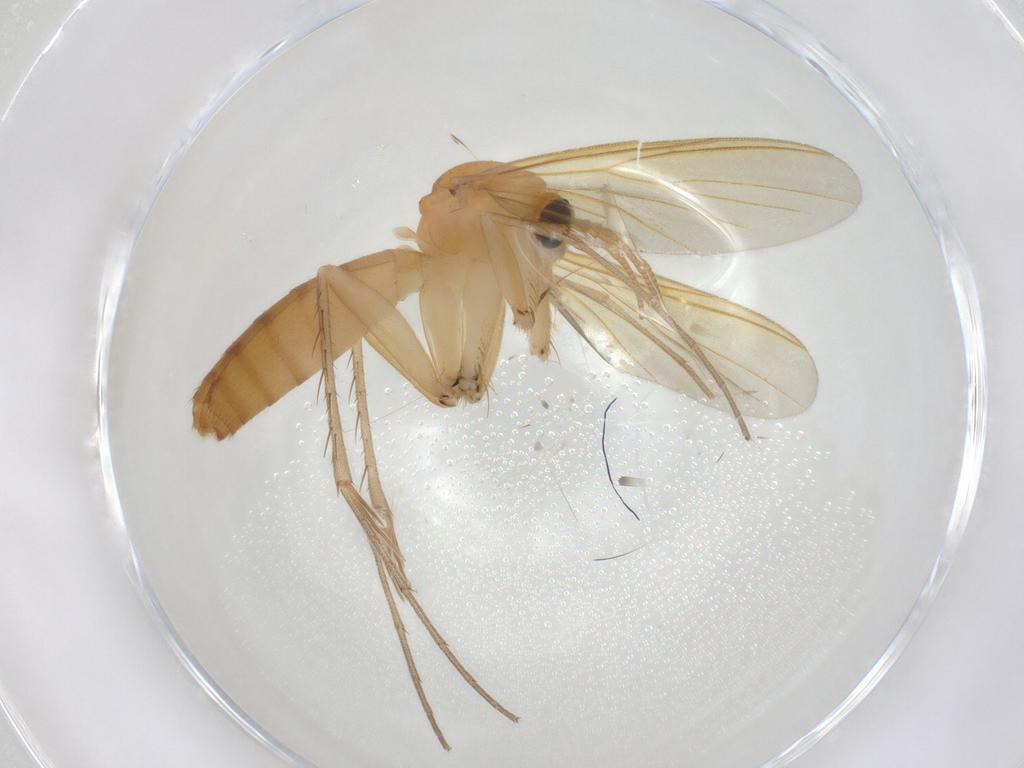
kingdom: Animalia
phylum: Arthropoda
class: Insecta
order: Diptera
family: Mycetophilidae
